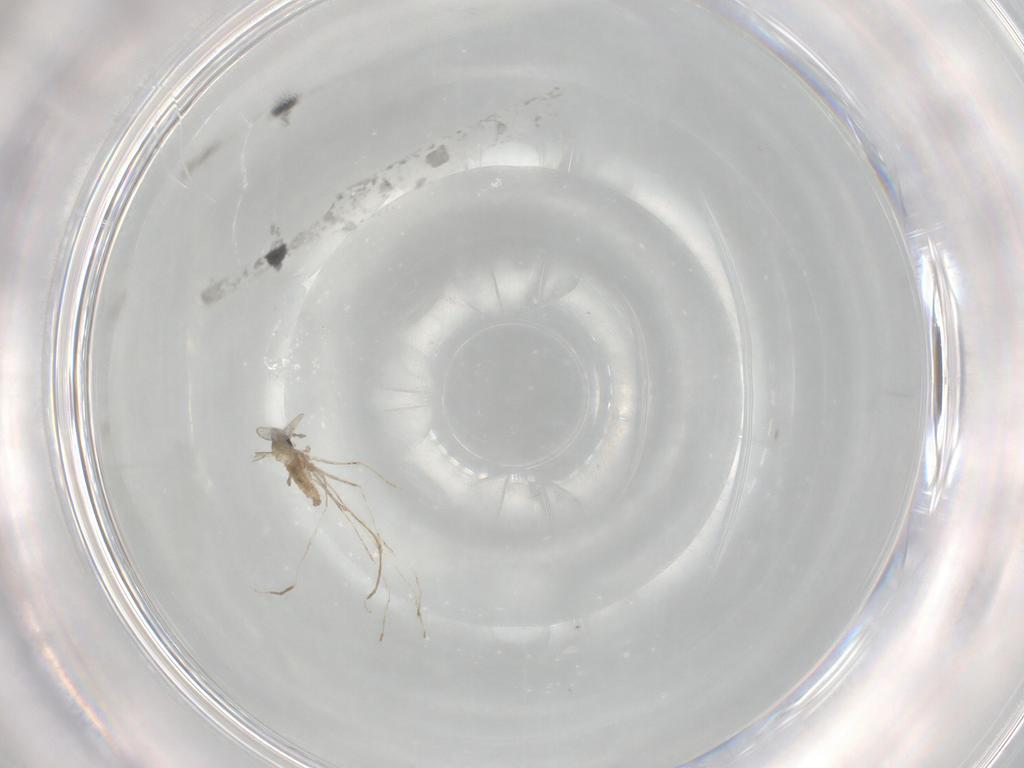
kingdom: Animalia
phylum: Arthropoda
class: Insecta
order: Diptera
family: Cecidomyiidae
